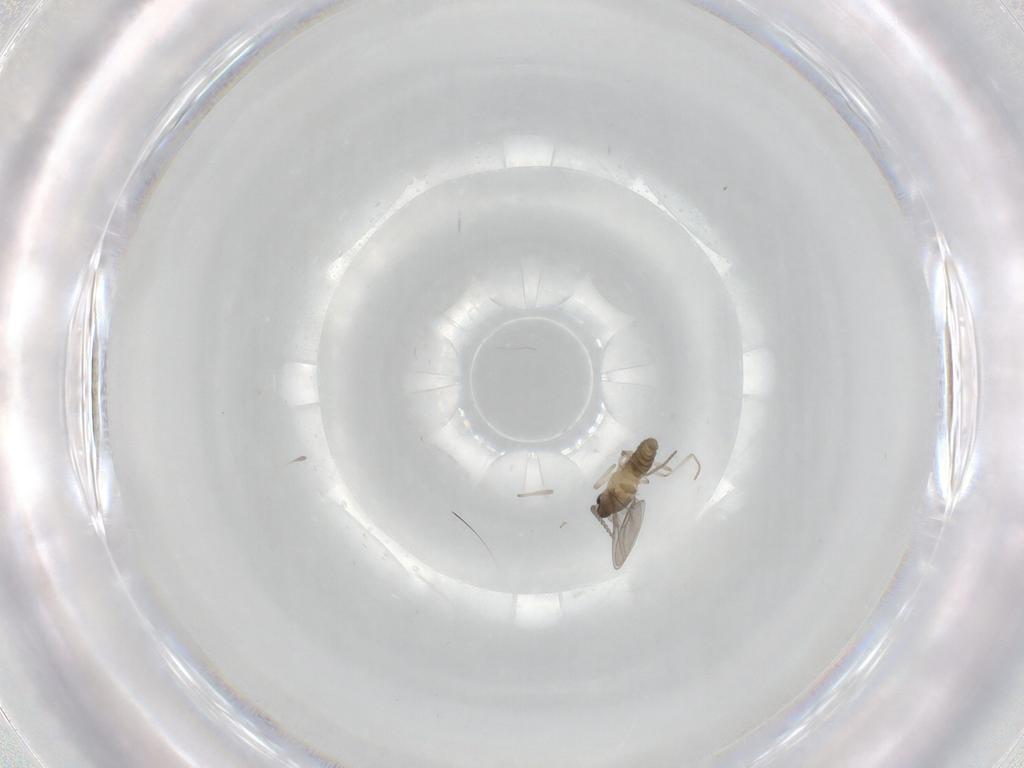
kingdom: Animalia
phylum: Arthropoda
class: Insecta
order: Diptera
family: Cecidomyiidae
